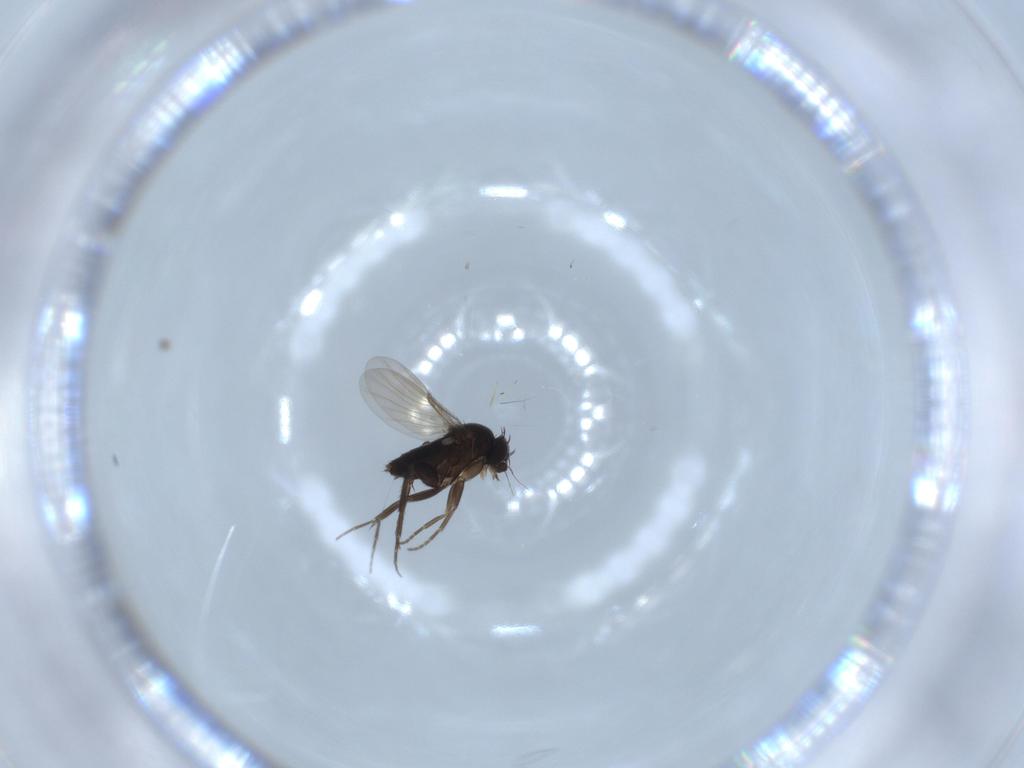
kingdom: Animalia
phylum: Arthropoda
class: Insecta
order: Diptera
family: Phoridae
